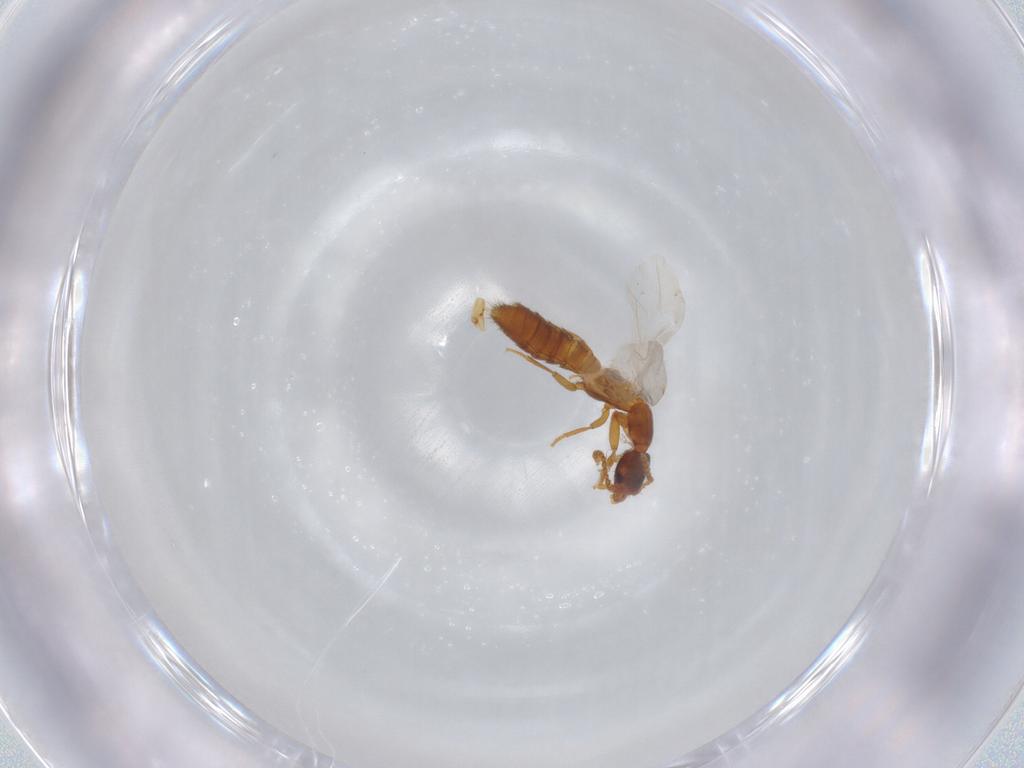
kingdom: Animalia
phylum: Arthropoda
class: Insecta
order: Coleoptera
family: Staphylinidae
